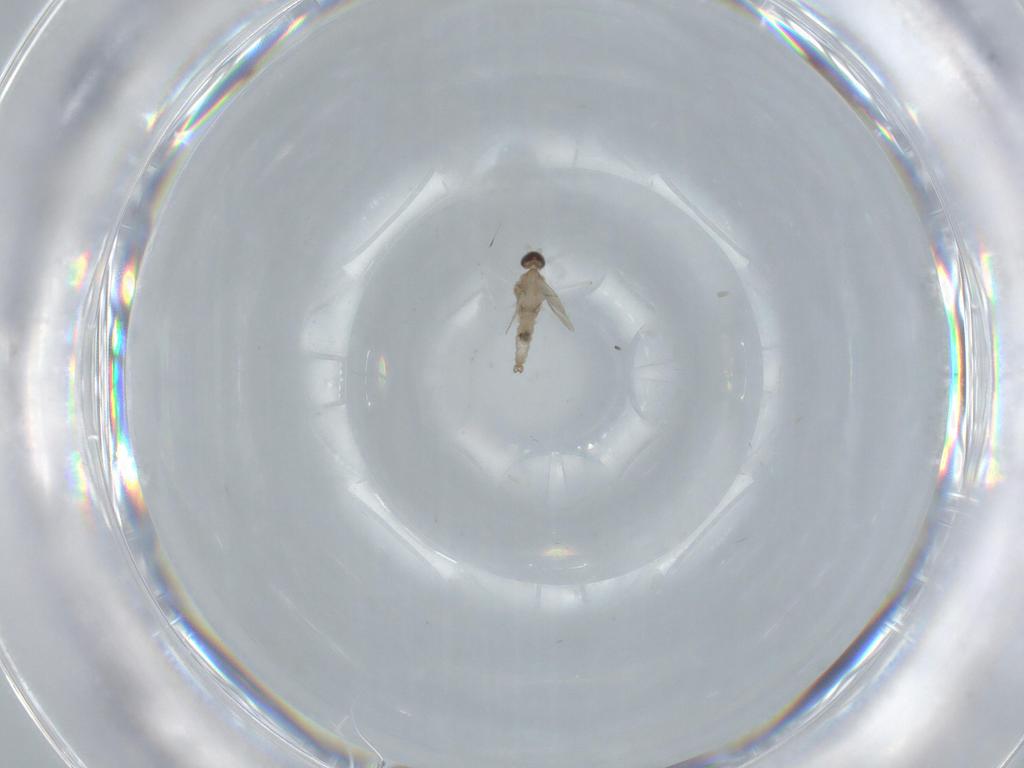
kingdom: Animalia
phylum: Arthropoda
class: Insecta
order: Diptera
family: Cecidomyiidae
